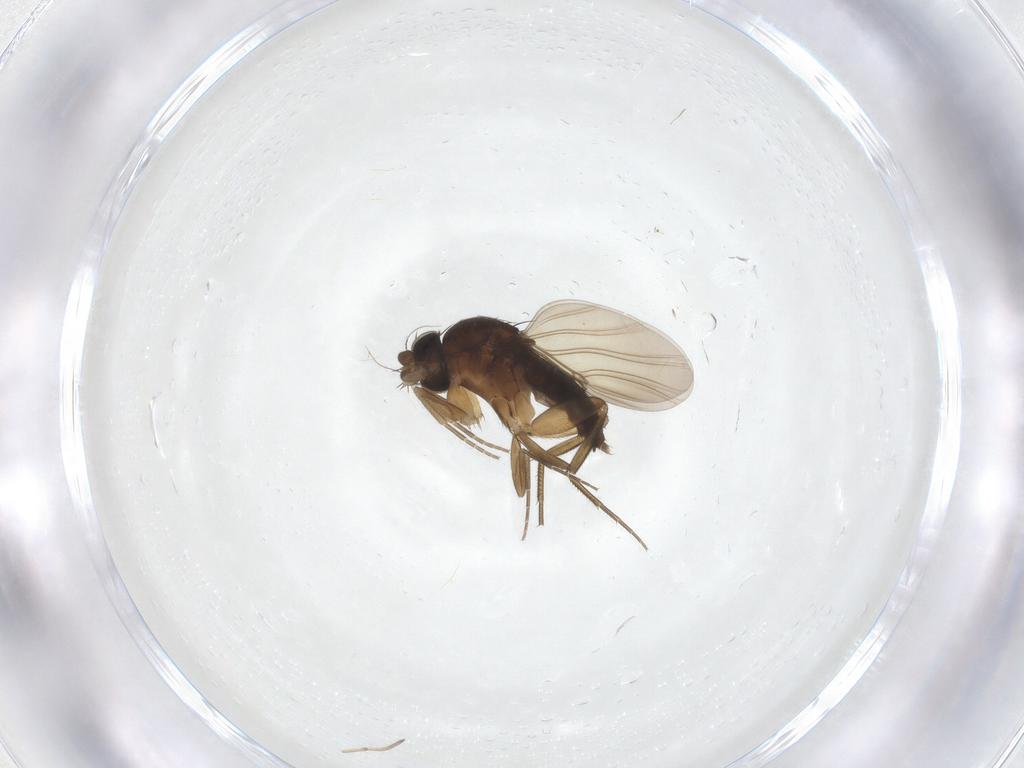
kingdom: Animalia
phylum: Arthropoda
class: Insecta
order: Diptera
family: Phoridae
